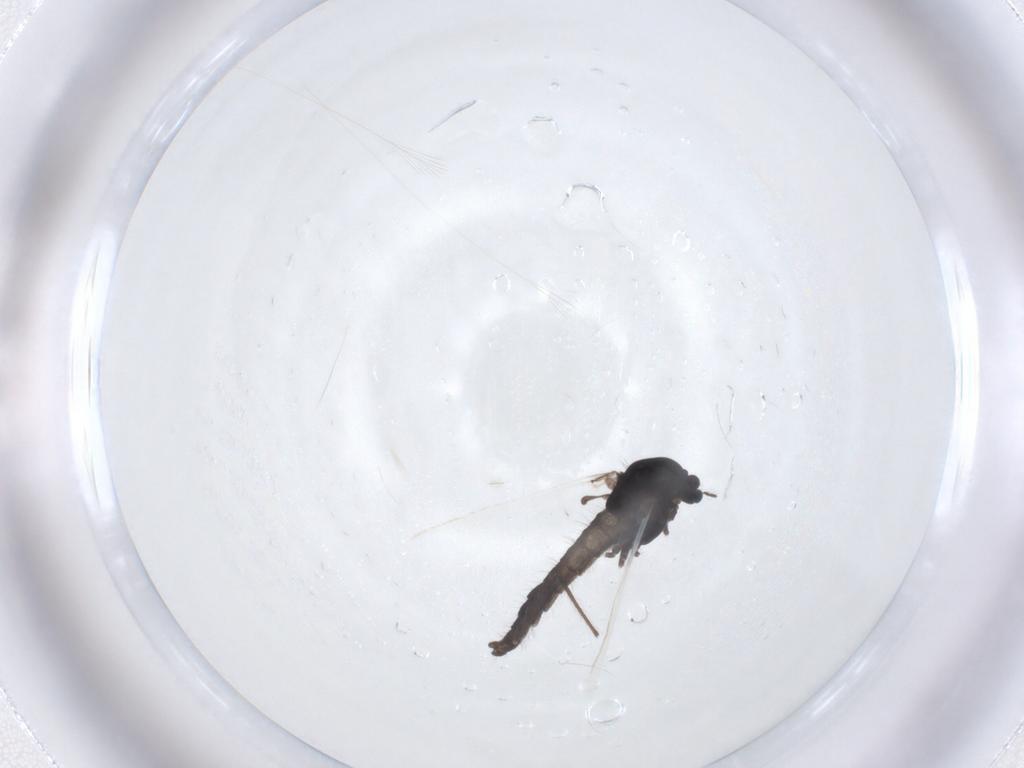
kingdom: Animalia
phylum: Arthropoda
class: Insecta
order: Diptera
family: Chironomidae
